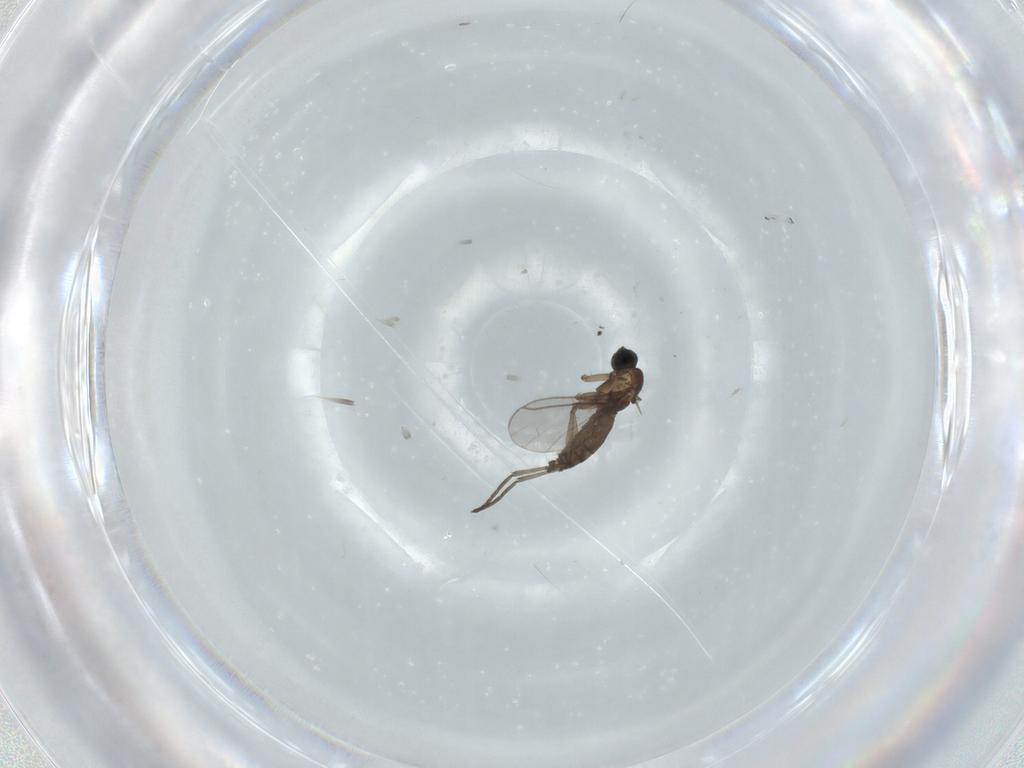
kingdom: Animalia
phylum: Arthropoda
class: Insecta
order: Diptera
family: Sciaridae
